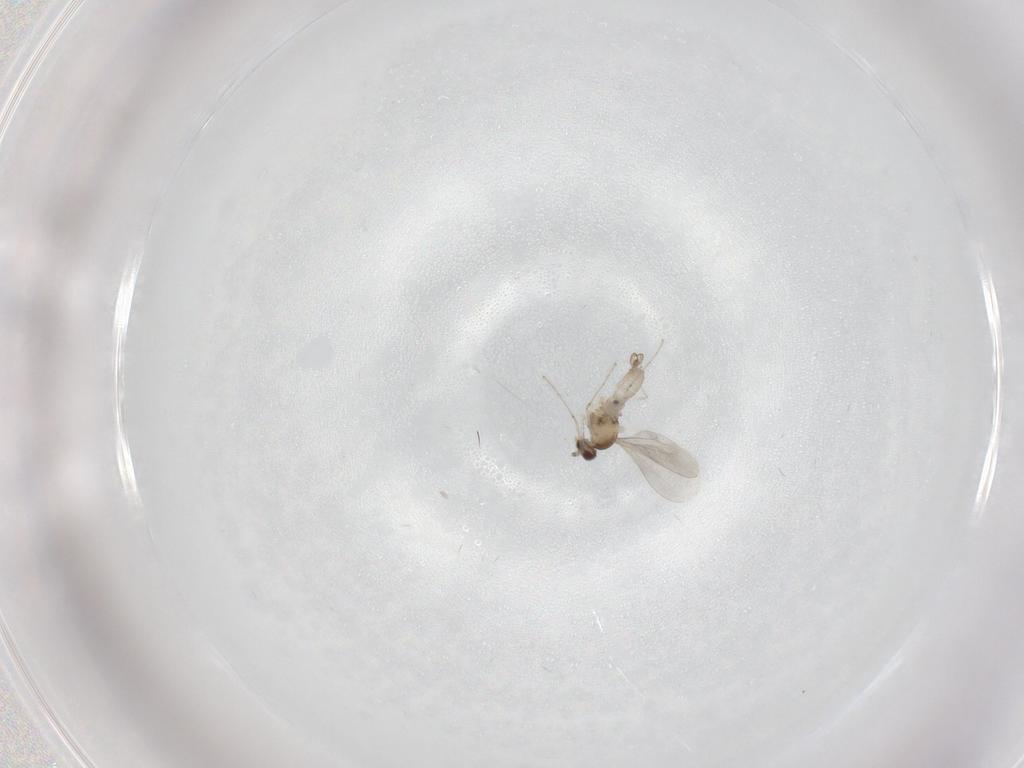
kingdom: Animalia
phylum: Arthropoda
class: Insecta
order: Diptera
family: Cecidomyiidae
